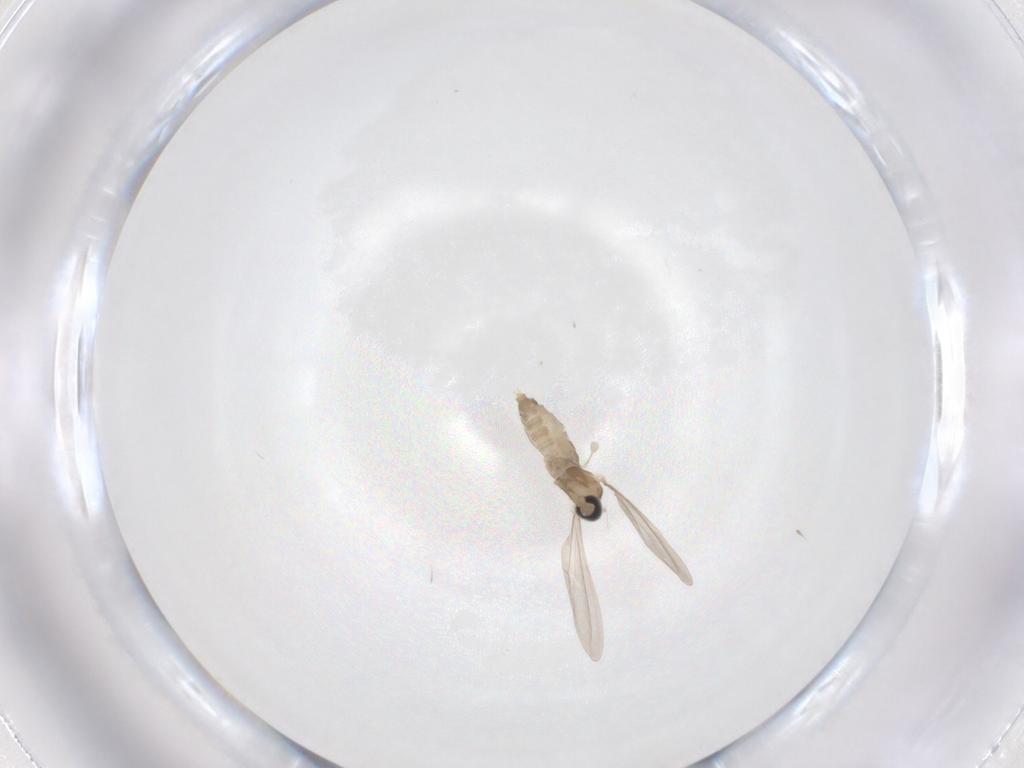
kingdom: Animalia
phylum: Arthropoda
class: Insecta
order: Diptera
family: Cecidomyiidae
